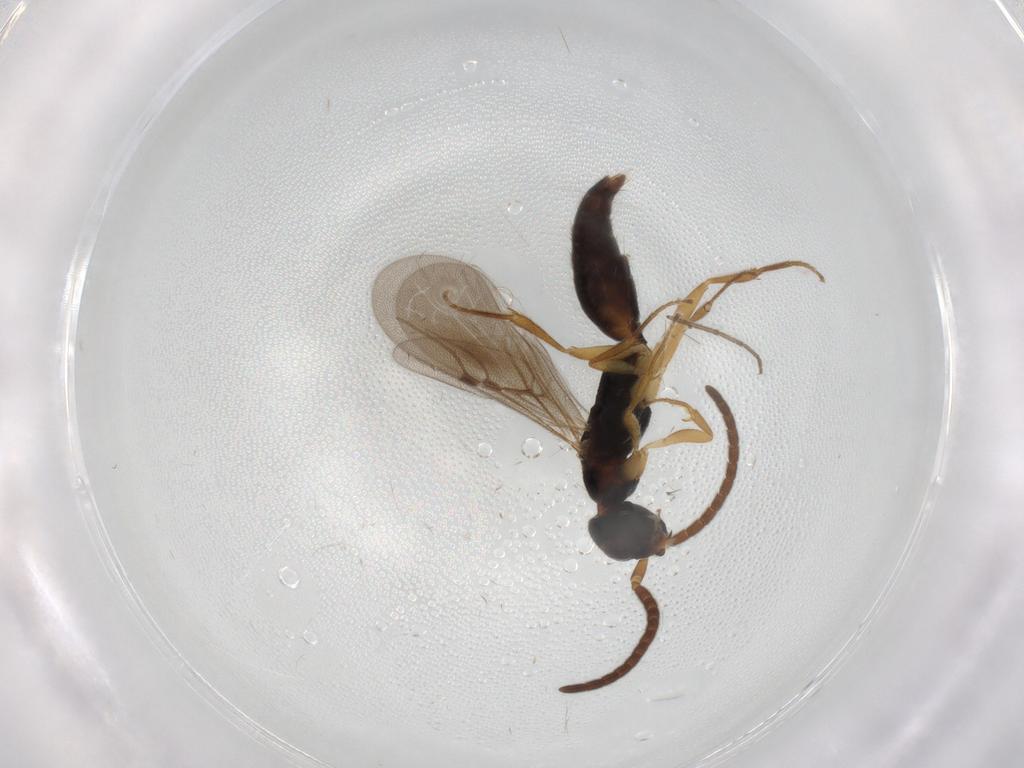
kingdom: Animalia
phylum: Arthropoda
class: Insecta
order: Hymenoptera
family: Bethylidae
